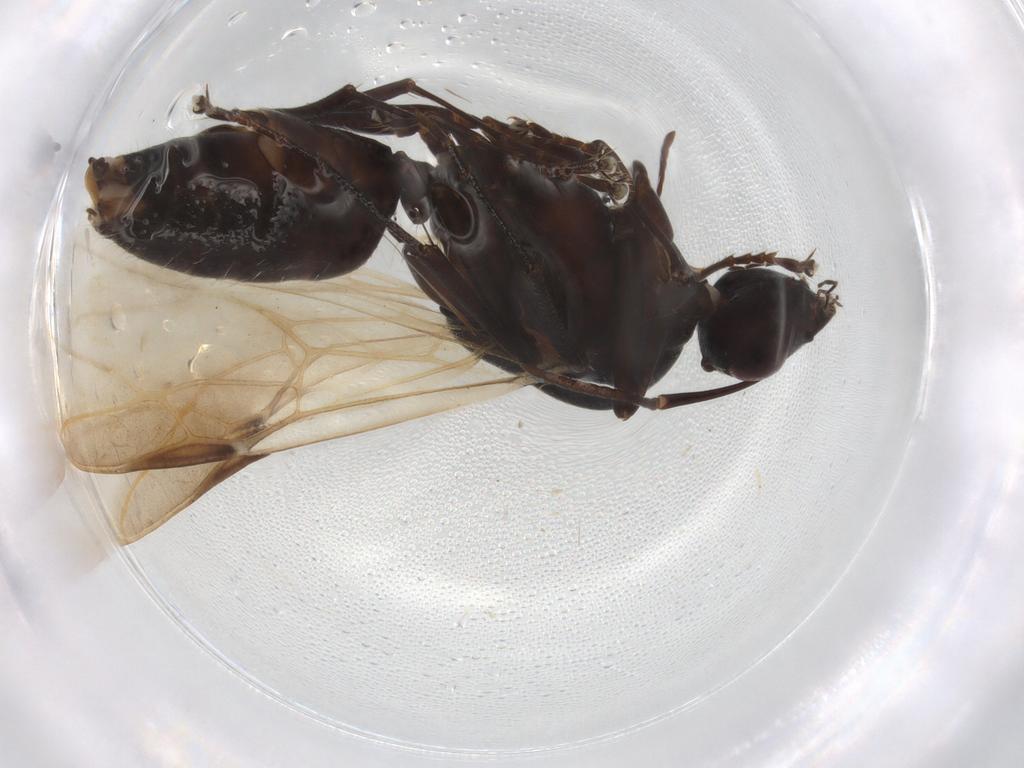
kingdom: Animalia
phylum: Arthropoda
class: Insecta
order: Hymenoptera
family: Formicidae
